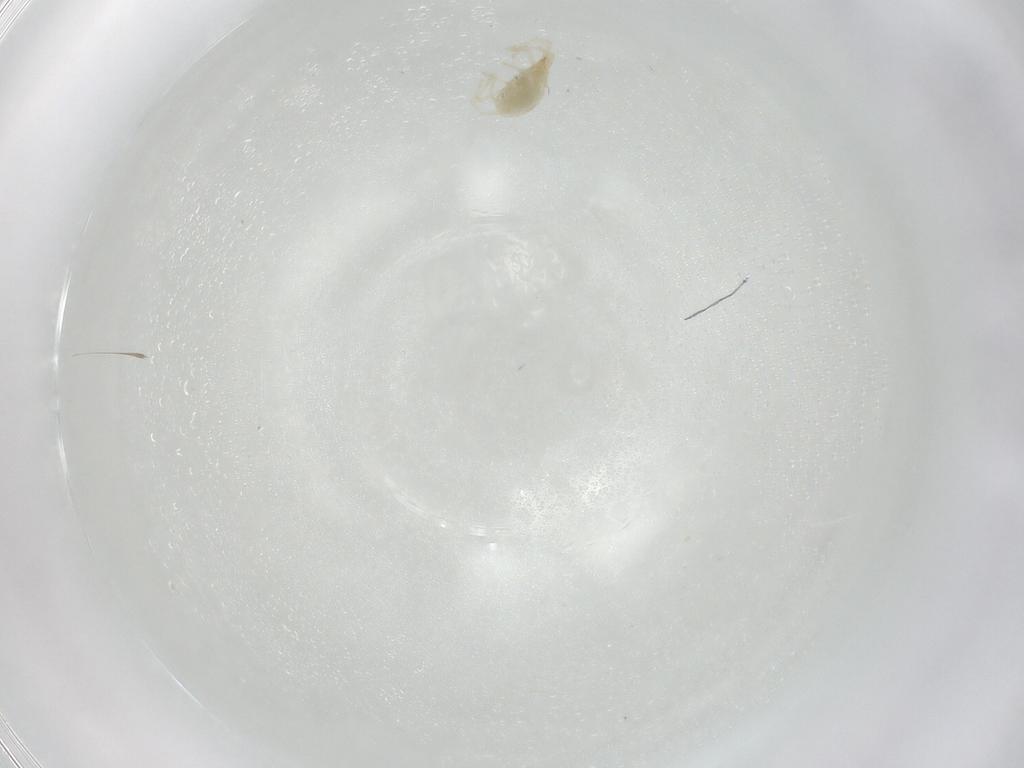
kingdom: Animalia
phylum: Arthropoda
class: Arachnida
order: Trombidiformes
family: Erythraeidae
